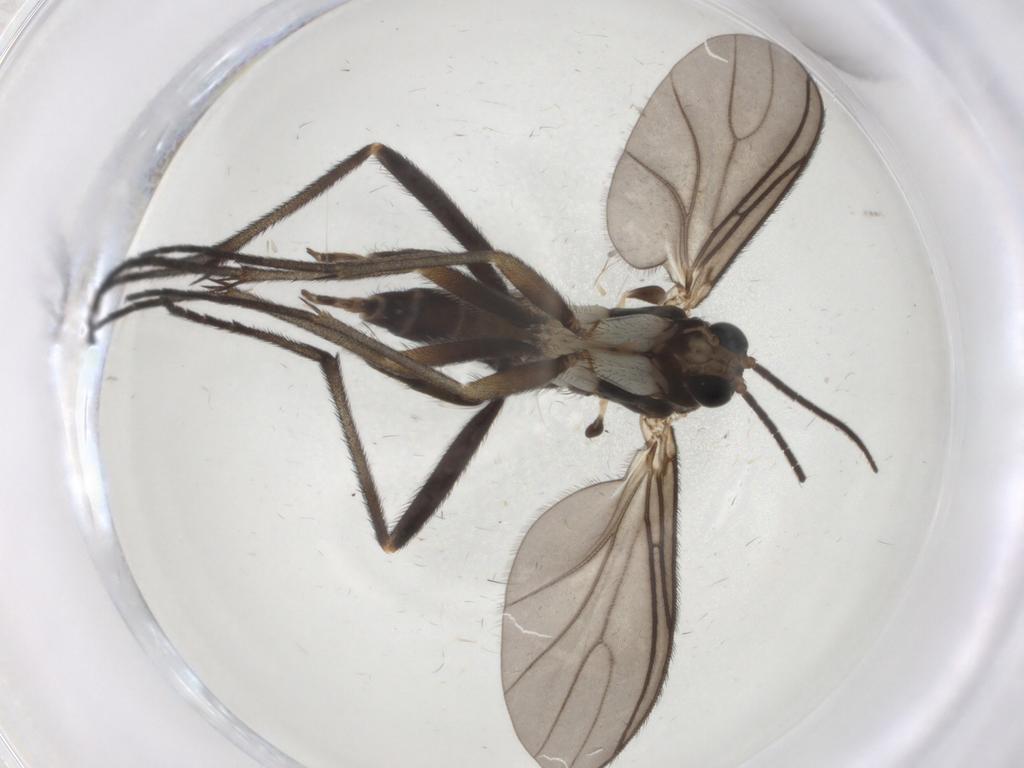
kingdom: Animalia
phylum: Arthropoda
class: Insecta
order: Diptera
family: Sciaridae
